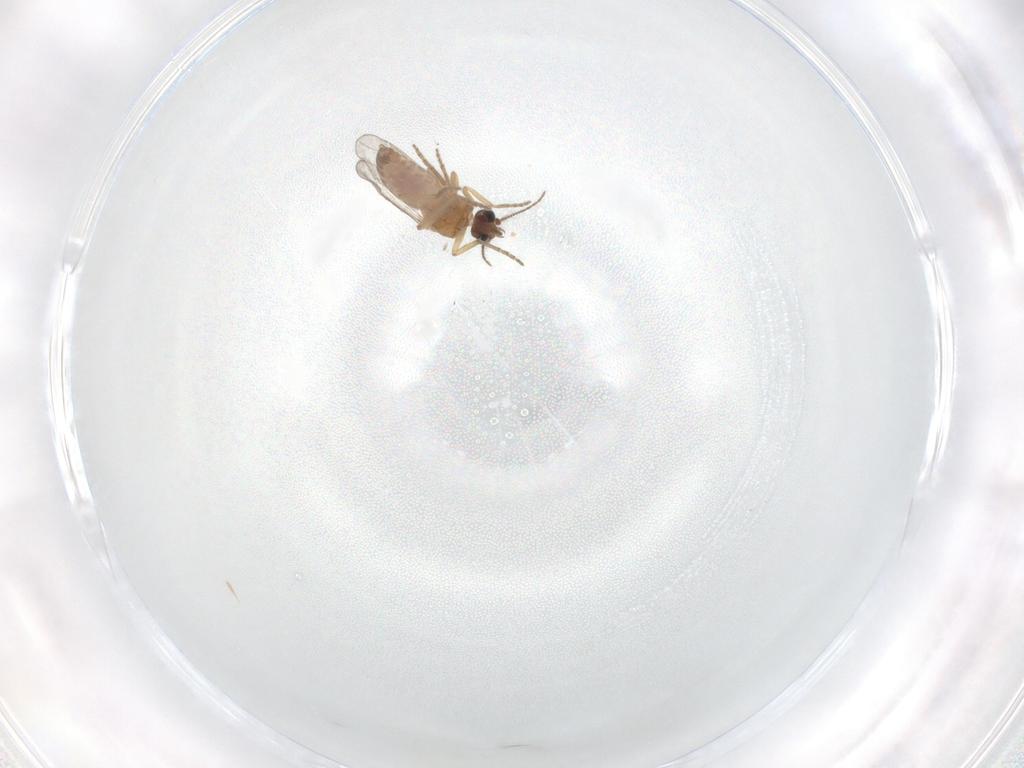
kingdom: Animalia
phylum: Arthropoda
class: Insecta
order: Diptera
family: Ceratopogonidae
